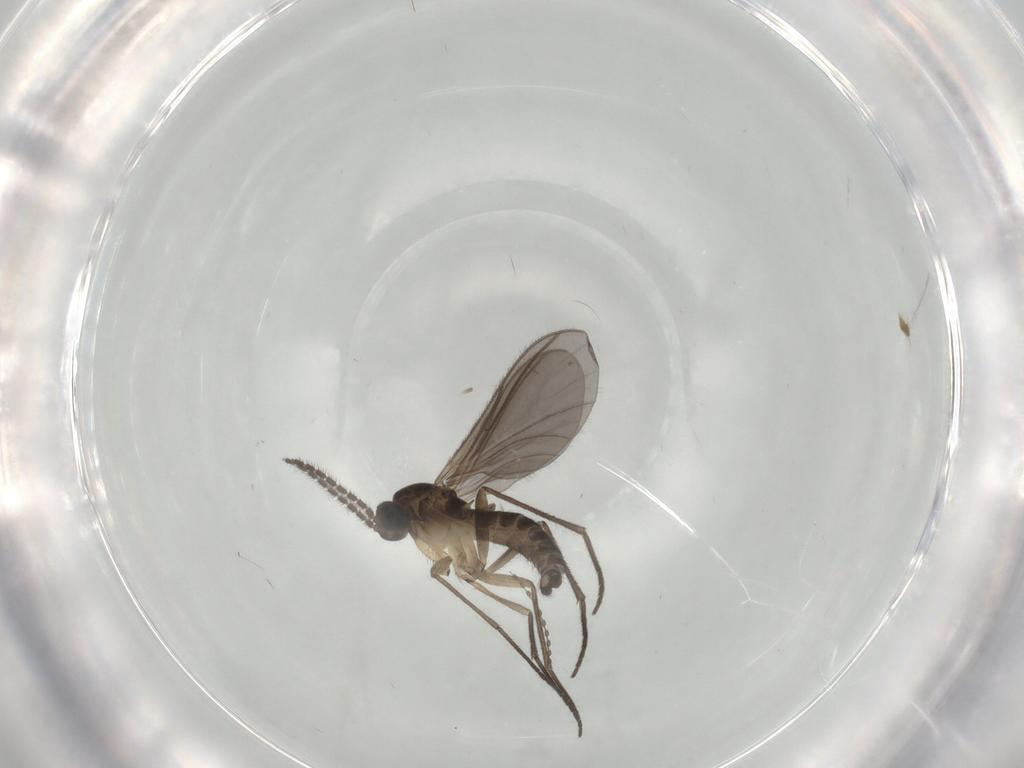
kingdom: Animalia
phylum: Arthropoda
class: Insecta
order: Diptera
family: Sciaridae
